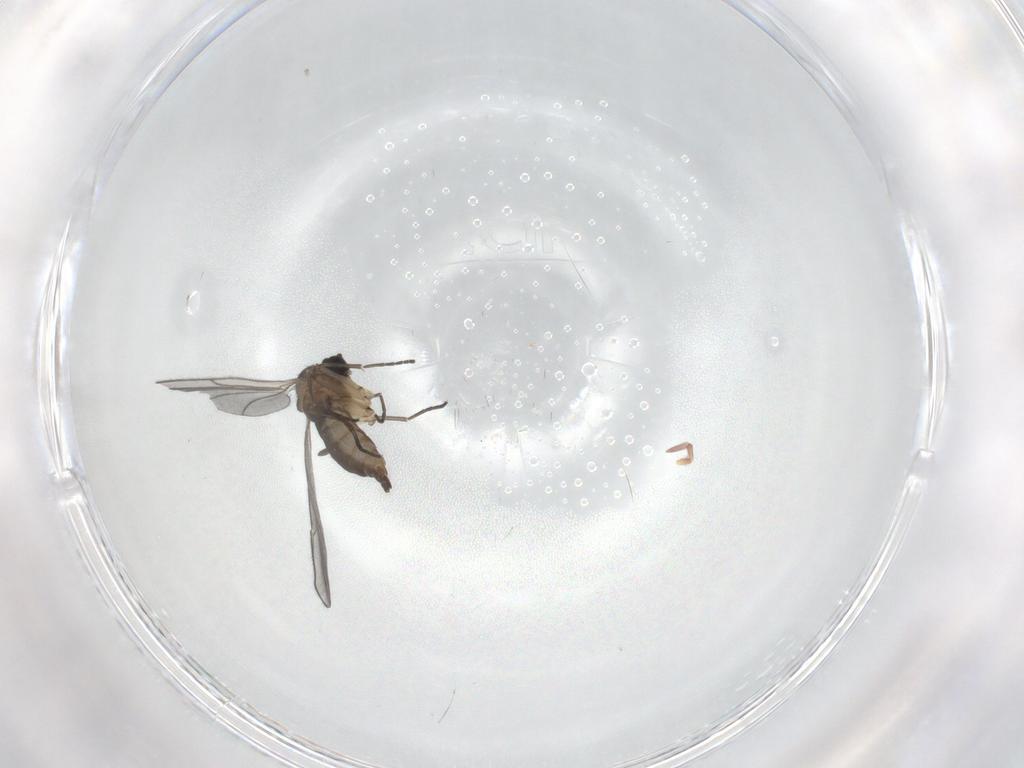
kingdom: Animalia
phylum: Arthropoda
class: Insecta
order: Diptera
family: Sciaridae
